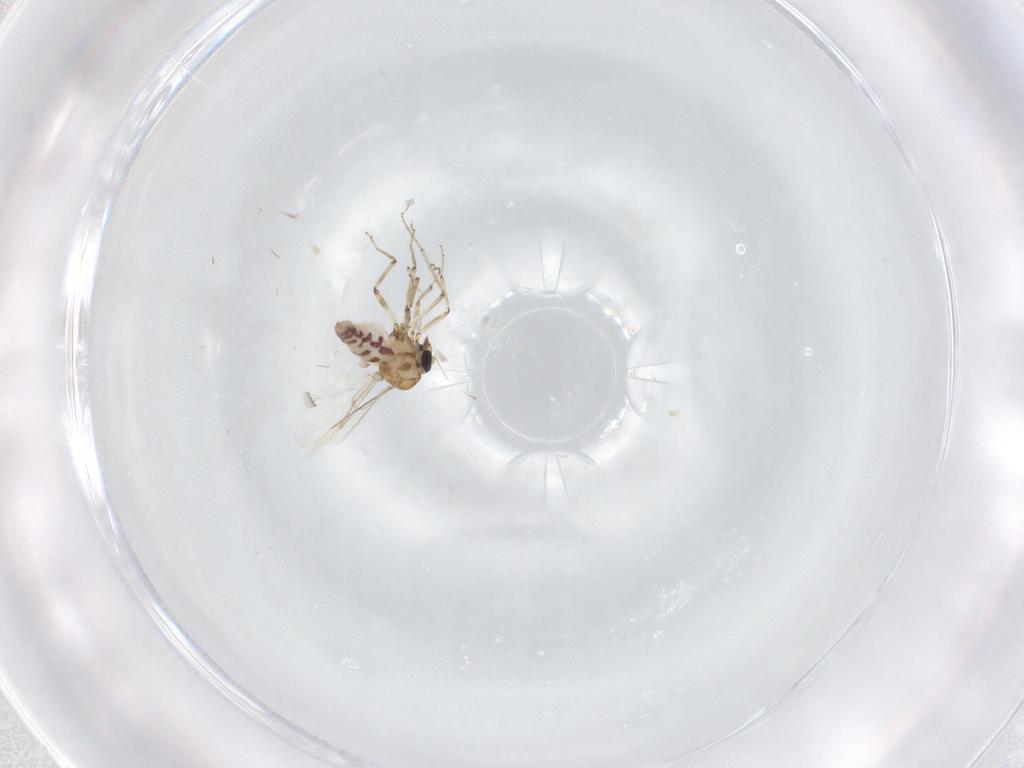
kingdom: Animalia
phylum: Arthropoda
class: Insecta
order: Diptera
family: Ceratopogonidae
